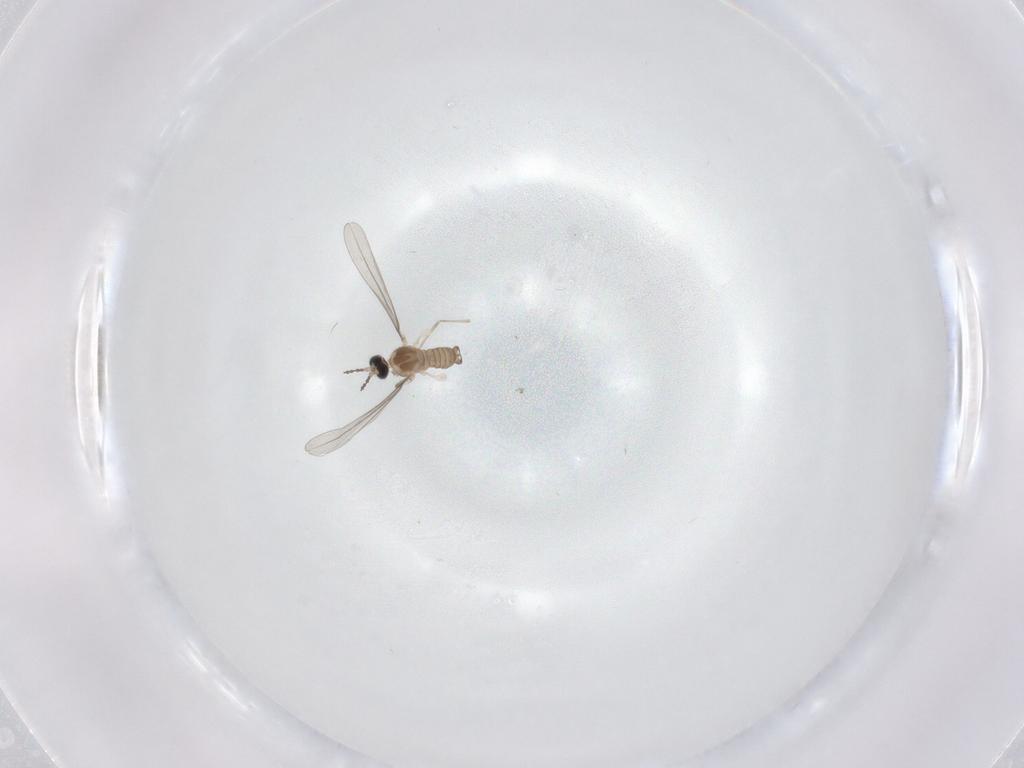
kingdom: Animalia
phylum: Arthropoda
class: Insecta
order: Diptera
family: Cecidomyiidae
